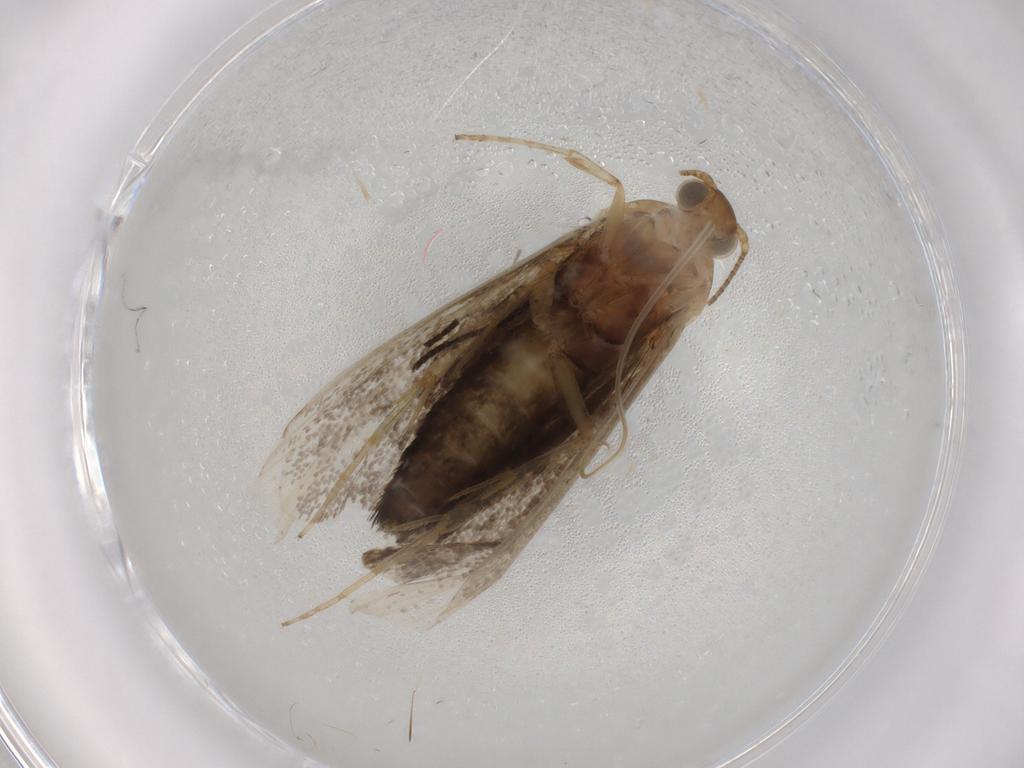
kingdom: Animalia
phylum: Arthropoda
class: Insecta
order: Lepidoptera
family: Choreutidae
